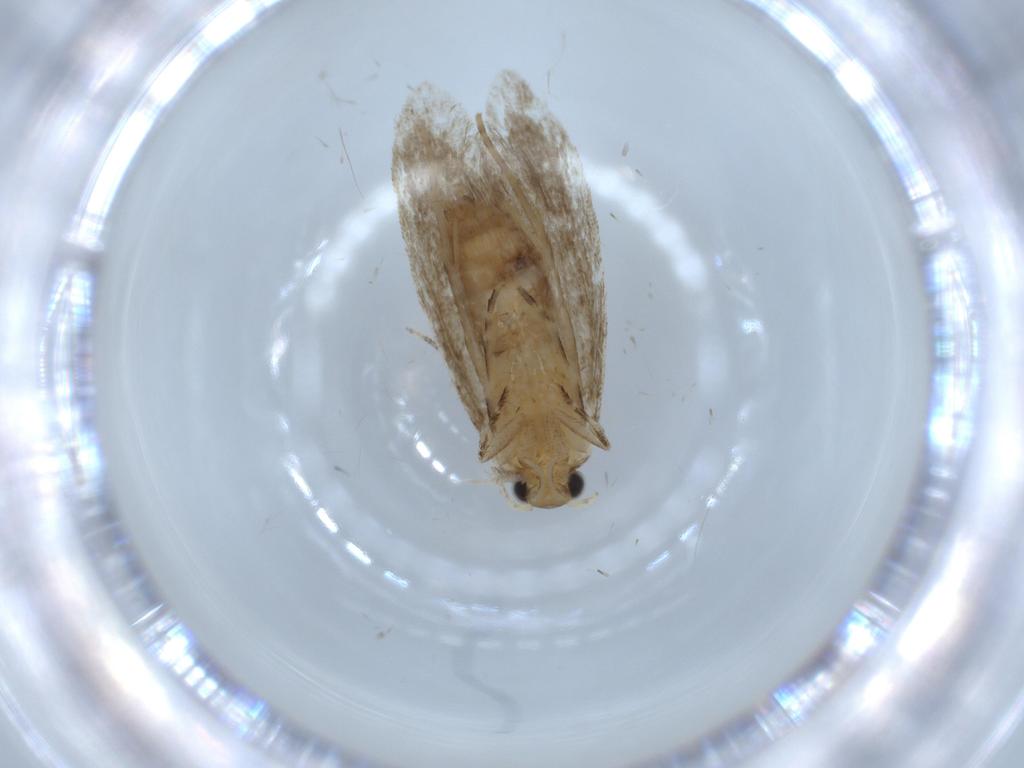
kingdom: Animalia
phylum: Arthropoda
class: Insecta
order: Lepidoptera
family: Tineidae
